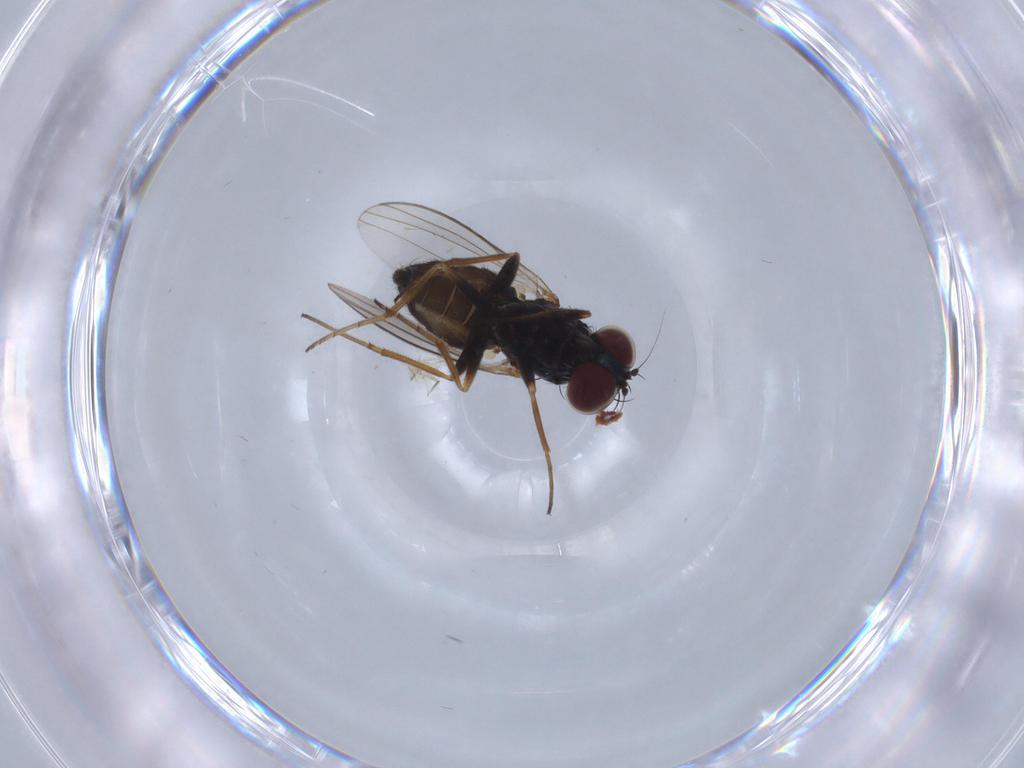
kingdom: Animalia
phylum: Arthropoda
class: Insecta
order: Diptera
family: Dolichopodidae
